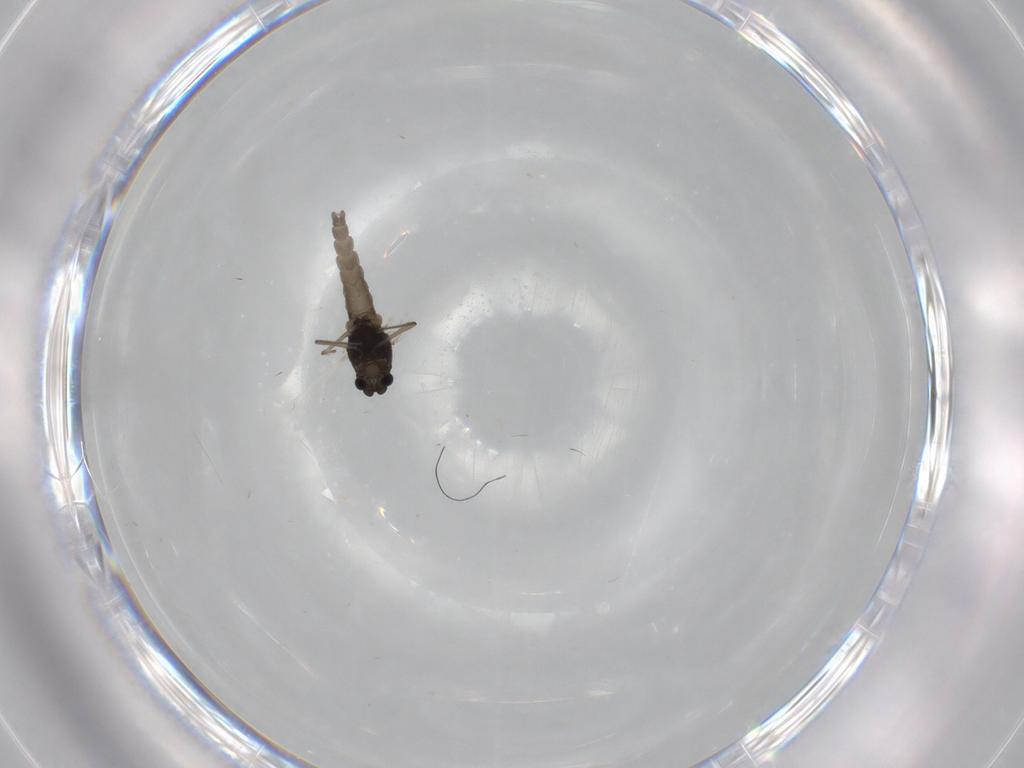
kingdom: Animalia
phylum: Arthropoda
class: Insecta
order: Diptera
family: Chironomidae
